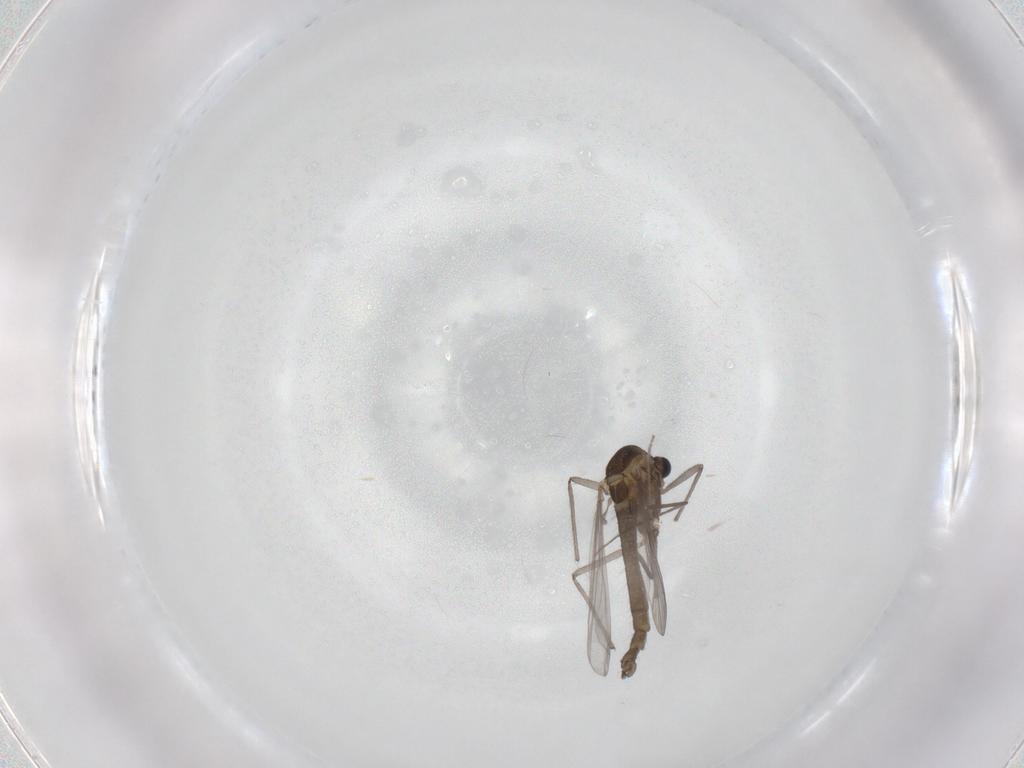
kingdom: Animalia
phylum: Arthropoda
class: Insecta
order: Diptera
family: Chironomidae
